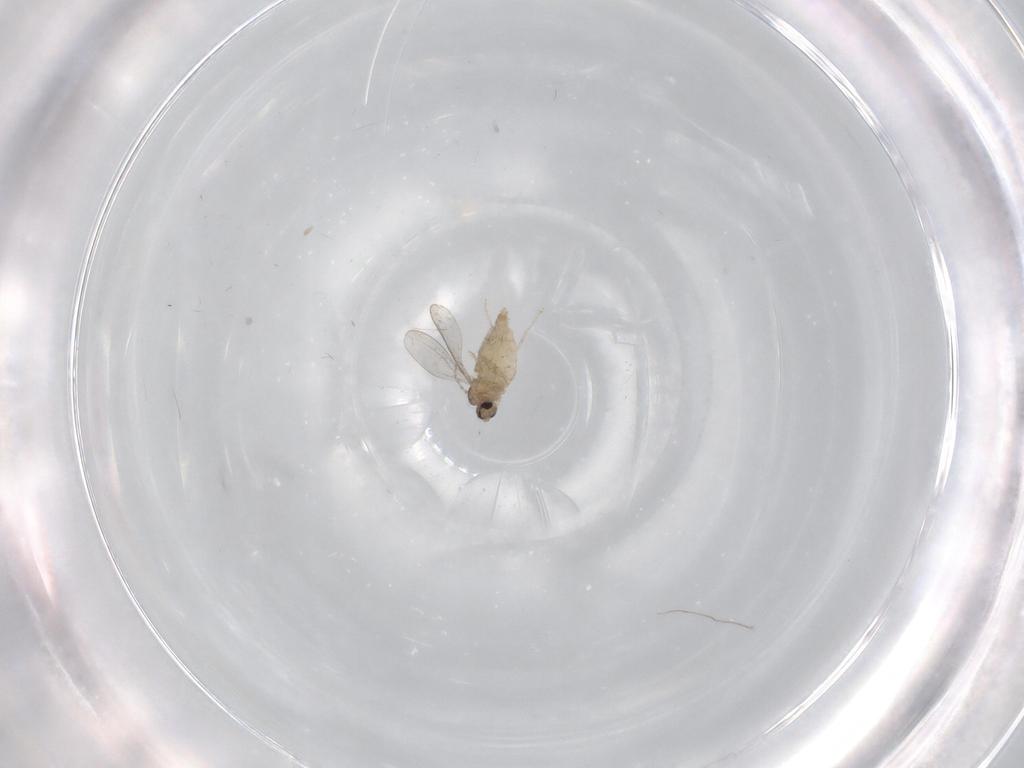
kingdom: Animalia
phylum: Arthropoda
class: Insecta
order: Diptera
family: Cecidomyiidae
